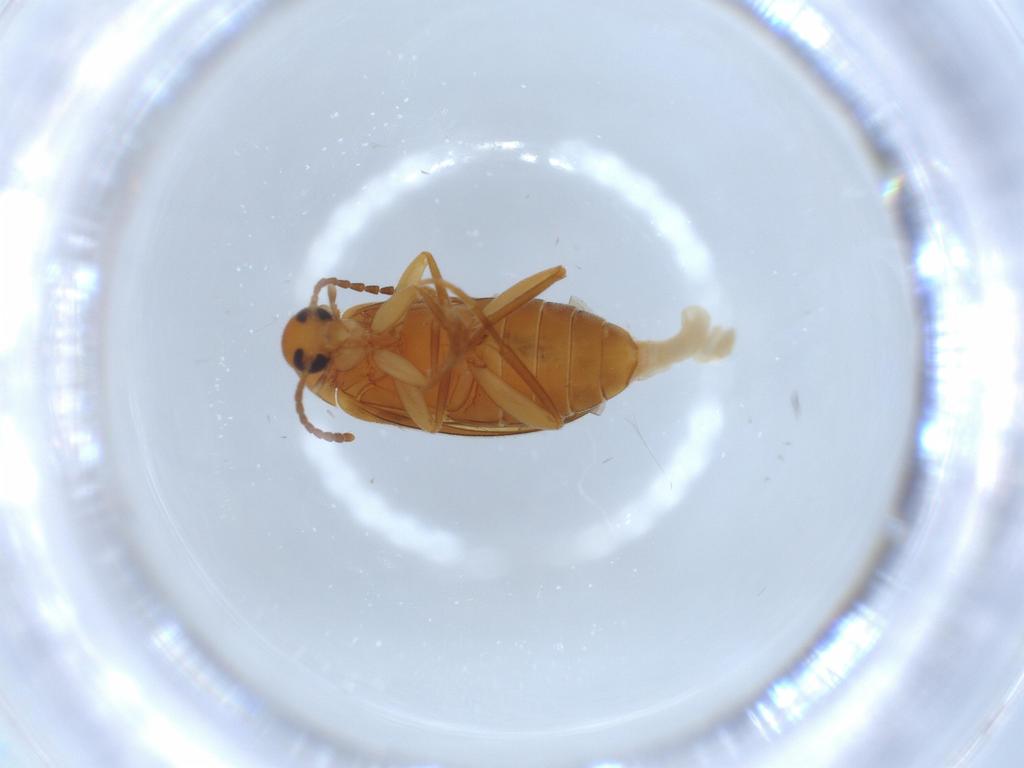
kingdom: Animalia
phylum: Arthropoda
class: Insecta
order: Coleoptera
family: Scraptiidae
